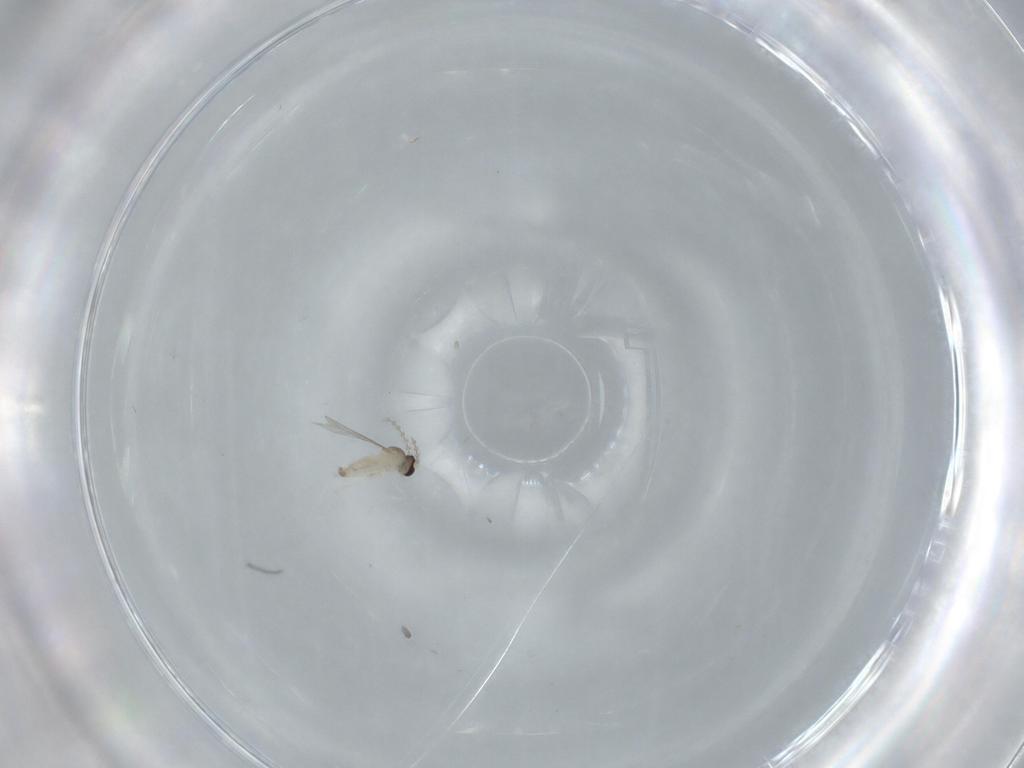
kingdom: Animalia
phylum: Arthropoda
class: Insecta
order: Diptera
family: Cecidomyiidae
